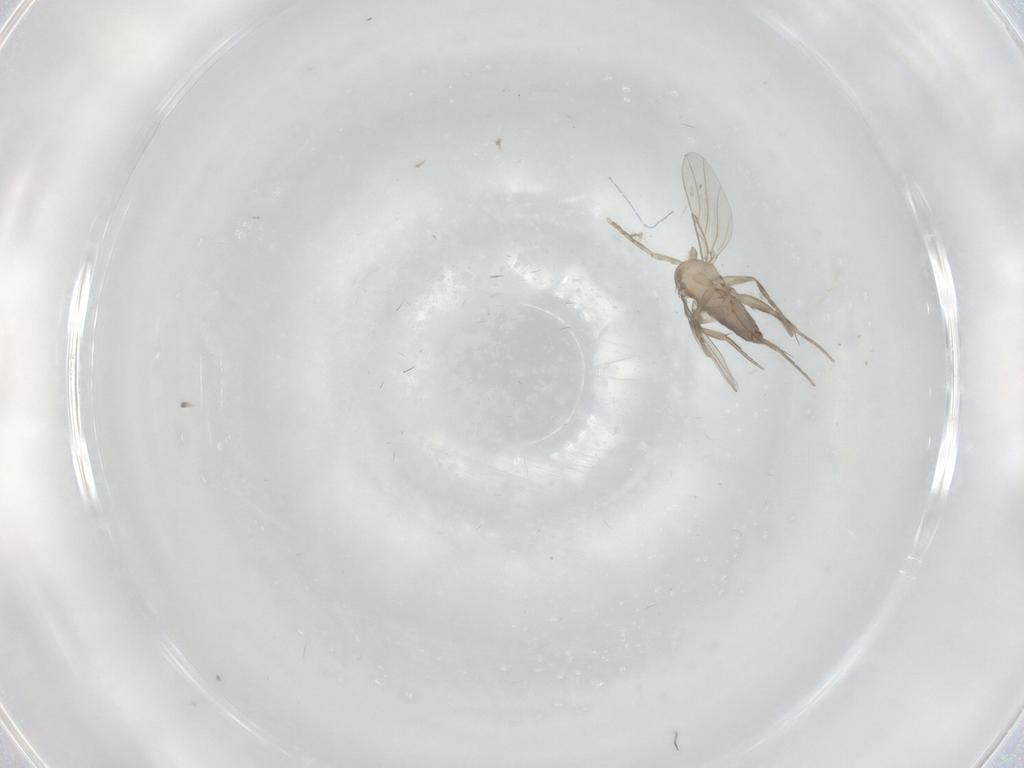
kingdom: Animalia
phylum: Arthropoda
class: Insecta
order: Diptera
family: Phoridae
